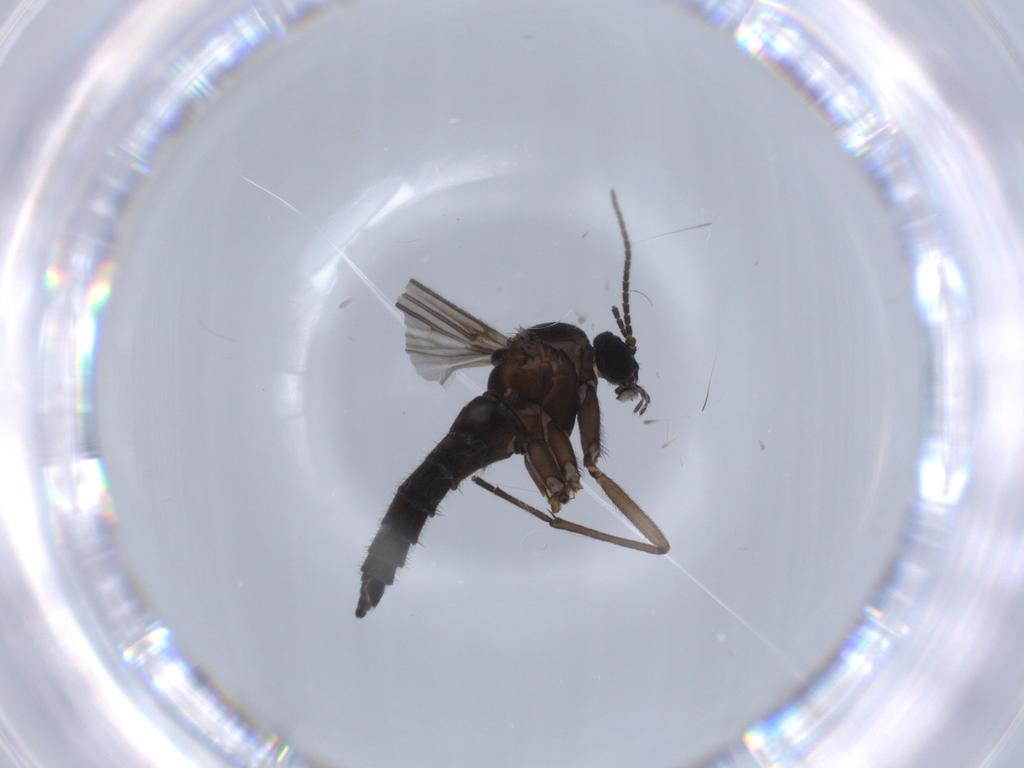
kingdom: Animalia
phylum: Arthropoda
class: Insecta
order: Diptera
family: Sciaridae
